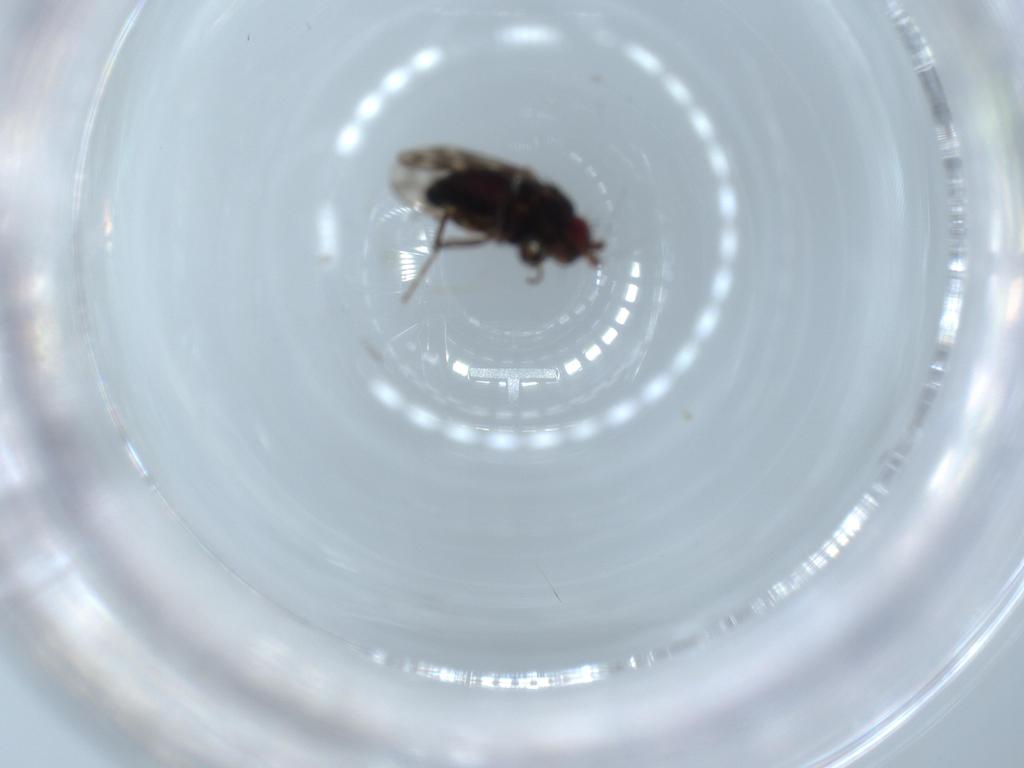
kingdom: Animalia
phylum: Arthropoda
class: Insecta
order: Diptera
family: Sphaeroceridae
